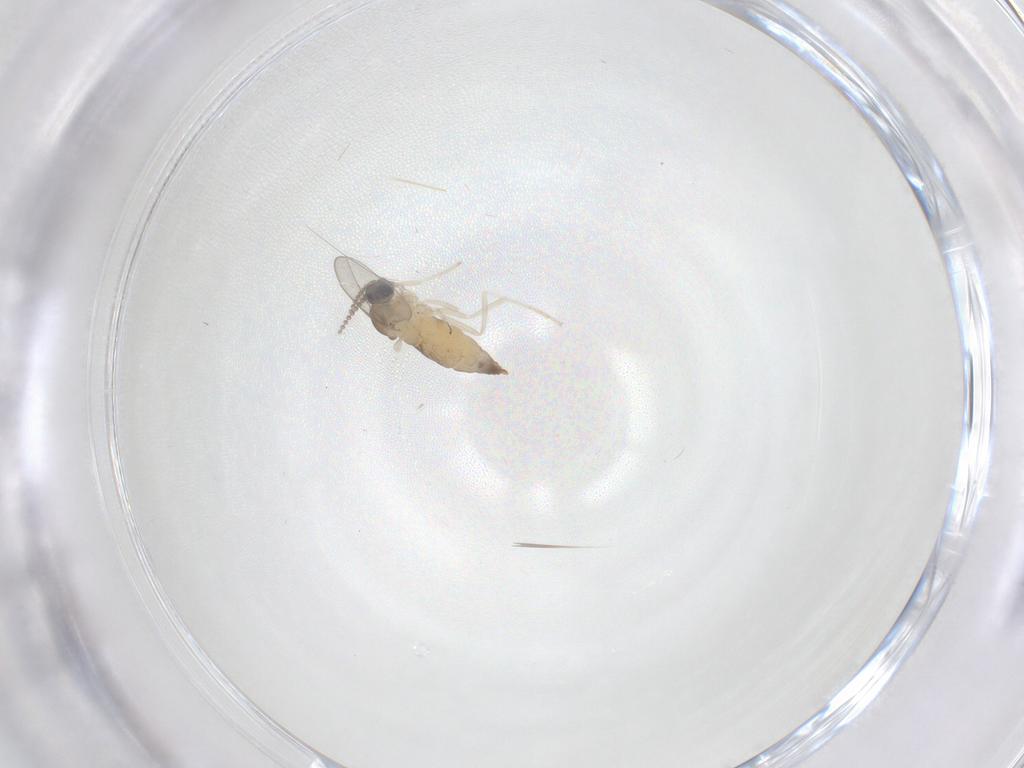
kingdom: Animalia
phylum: Arthropoda
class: Insecta
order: Diptera
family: Cecidomyiidae
